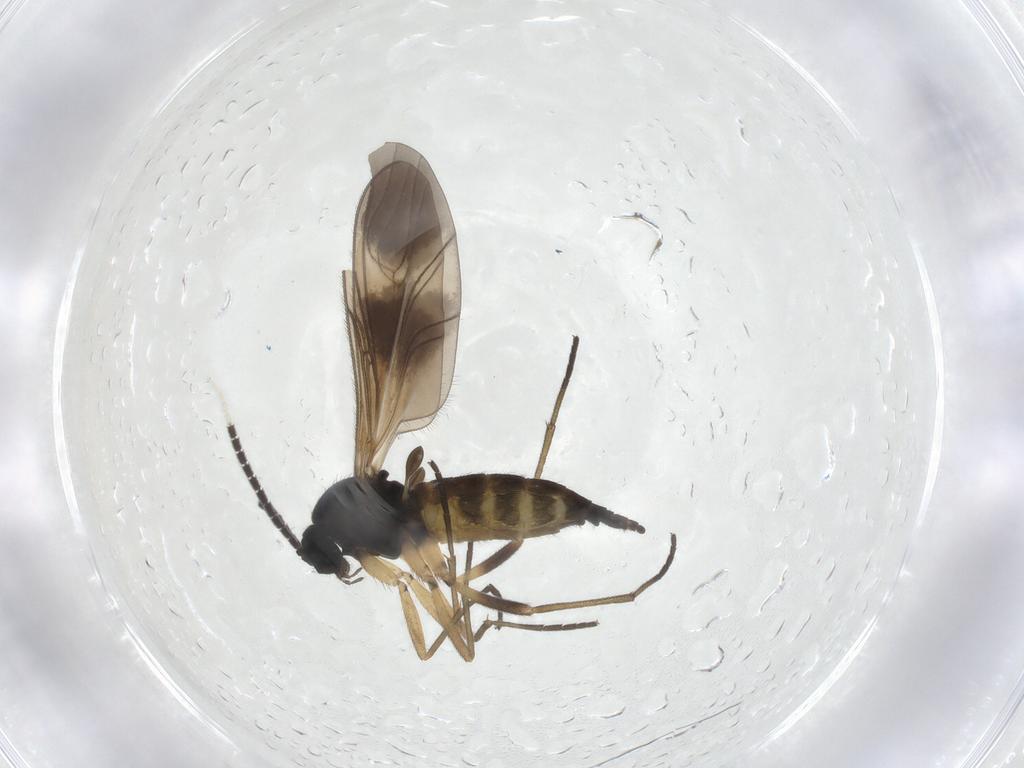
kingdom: Animalia
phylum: Arthropoda
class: Insecta
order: Diptera
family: Sciaridae
